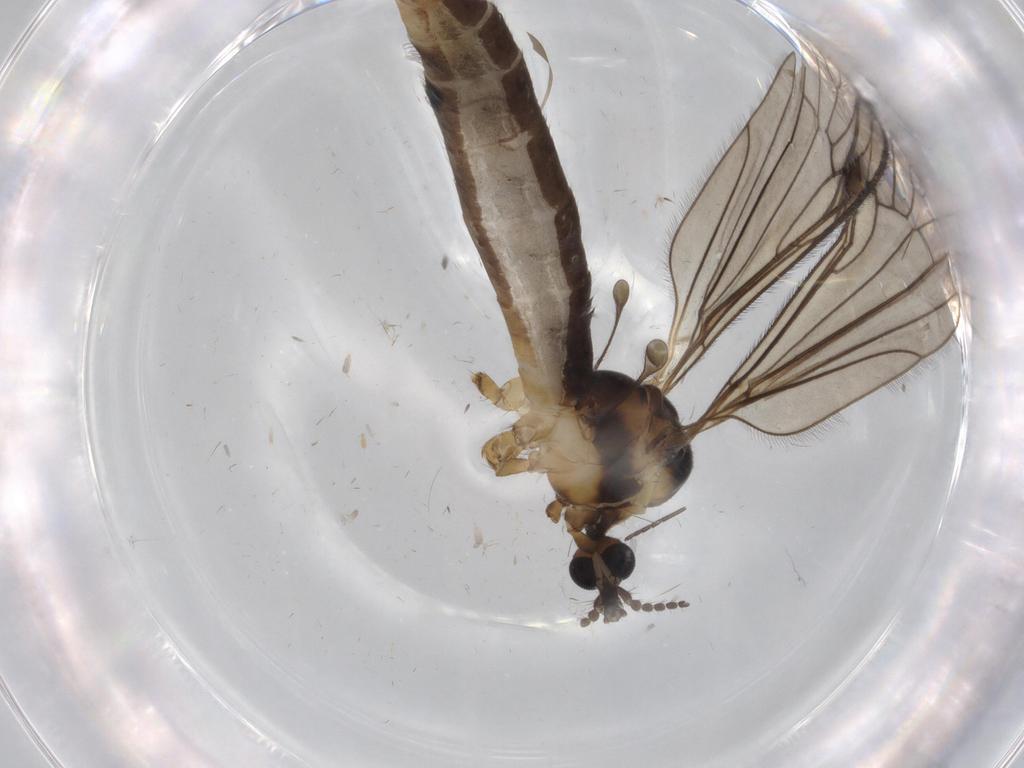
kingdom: Animalia
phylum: Arthropoda
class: Insecta
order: Diptera
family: Limoniidae
